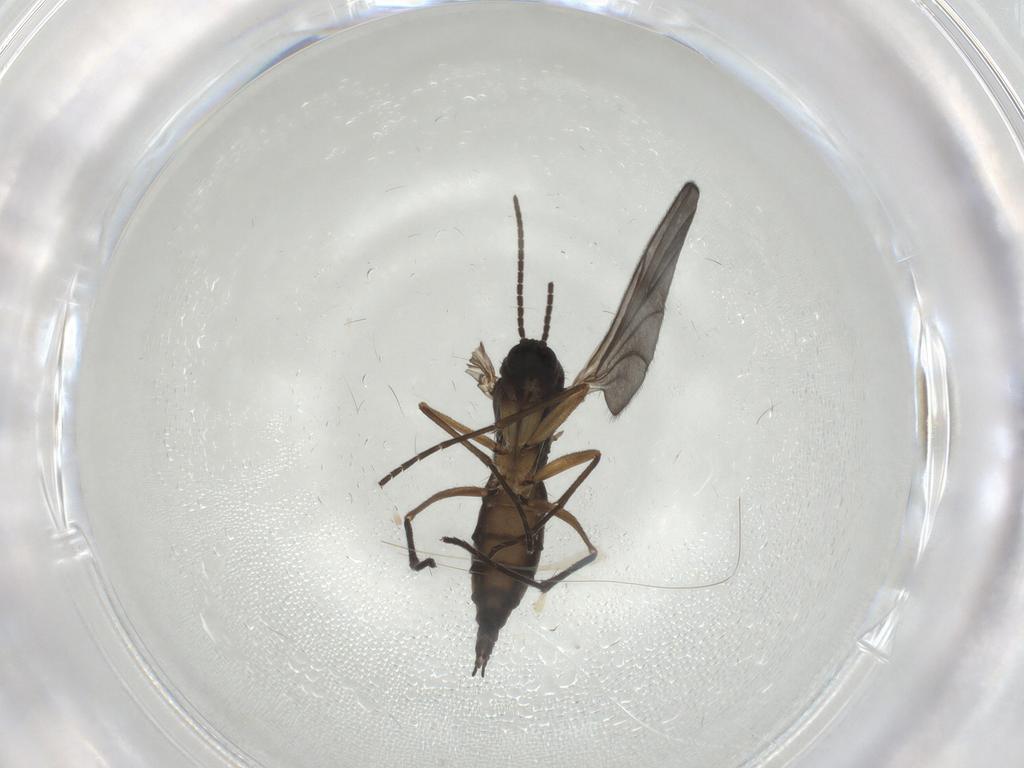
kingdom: Animalia
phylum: Arthropoda
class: Insecta
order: Diptera
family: Sciaridae
